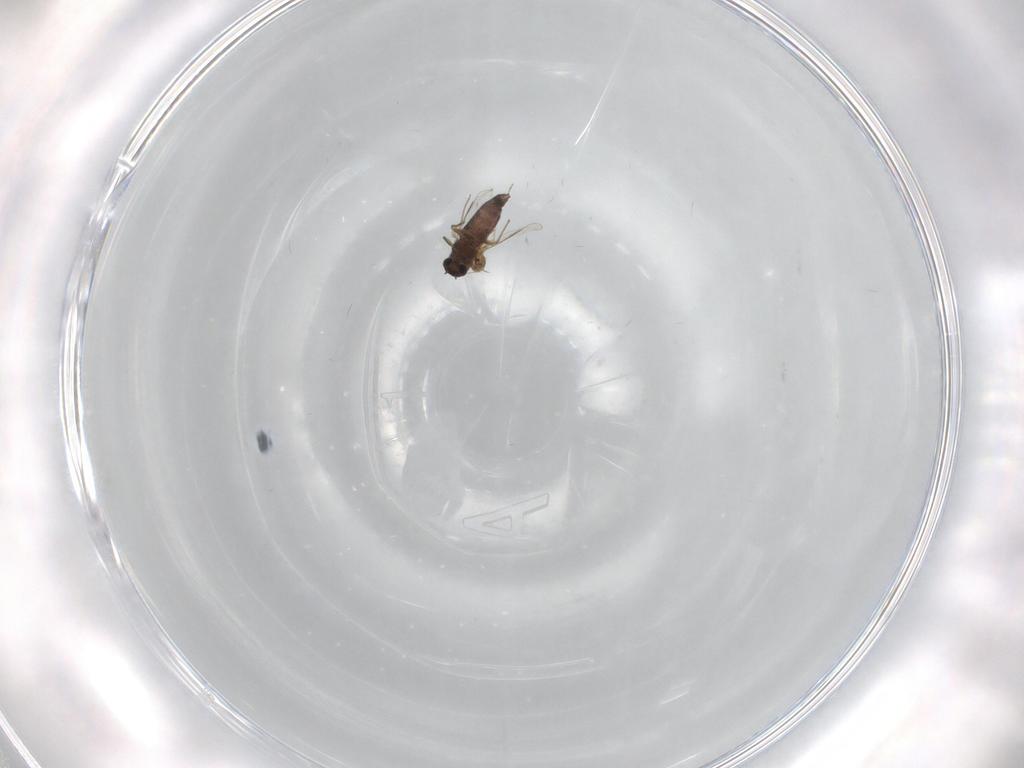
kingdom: Animalia
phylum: Arthropoda
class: Insecta
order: Diptera
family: Chironomidae
